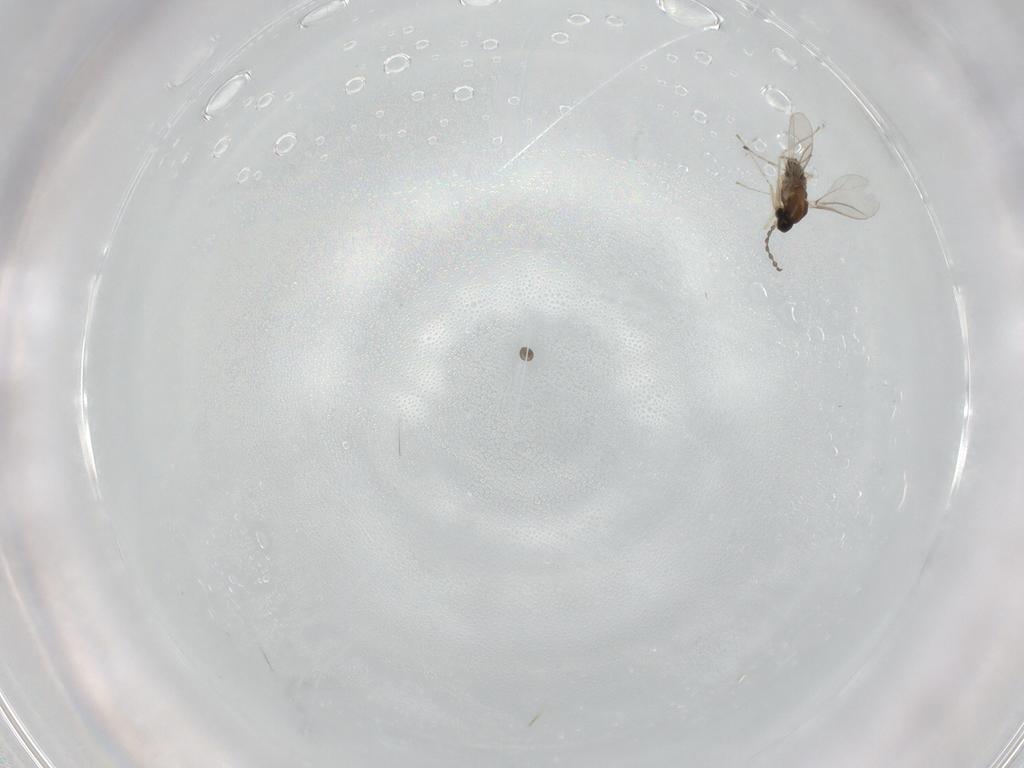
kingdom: Animalia
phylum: Arthropoda
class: Insecta
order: Diptera
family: Cecidomyiidae
